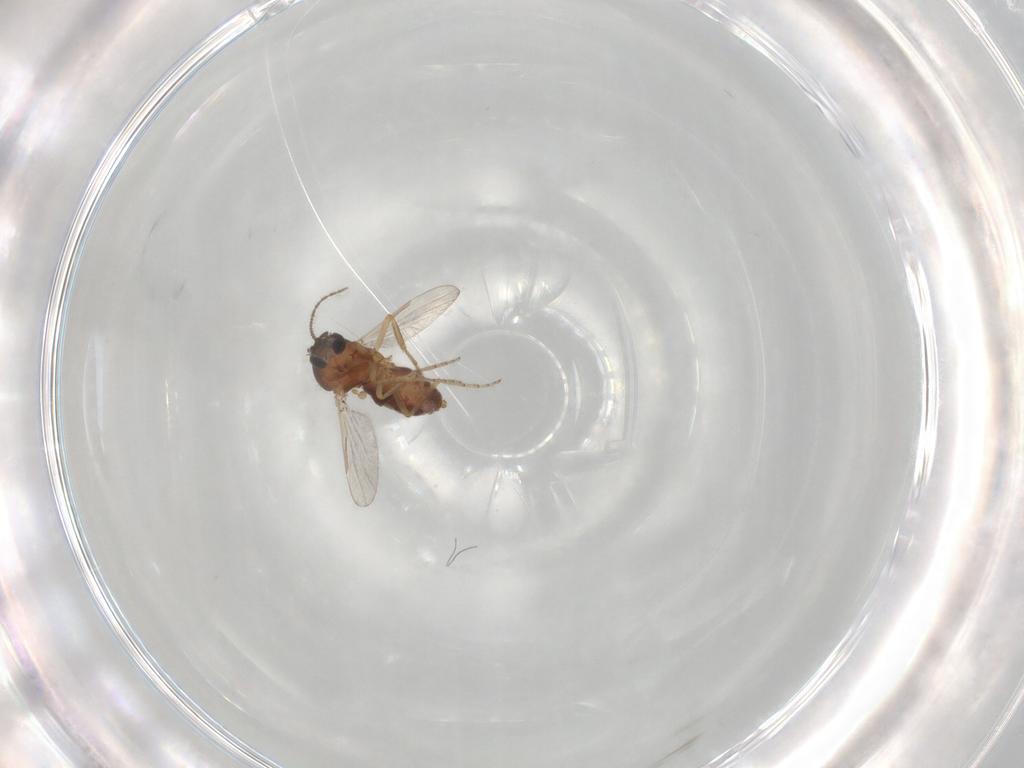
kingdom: Animalia
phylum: Arthropoda
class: Insecta
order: Diptera
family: Ceratopogonidae
